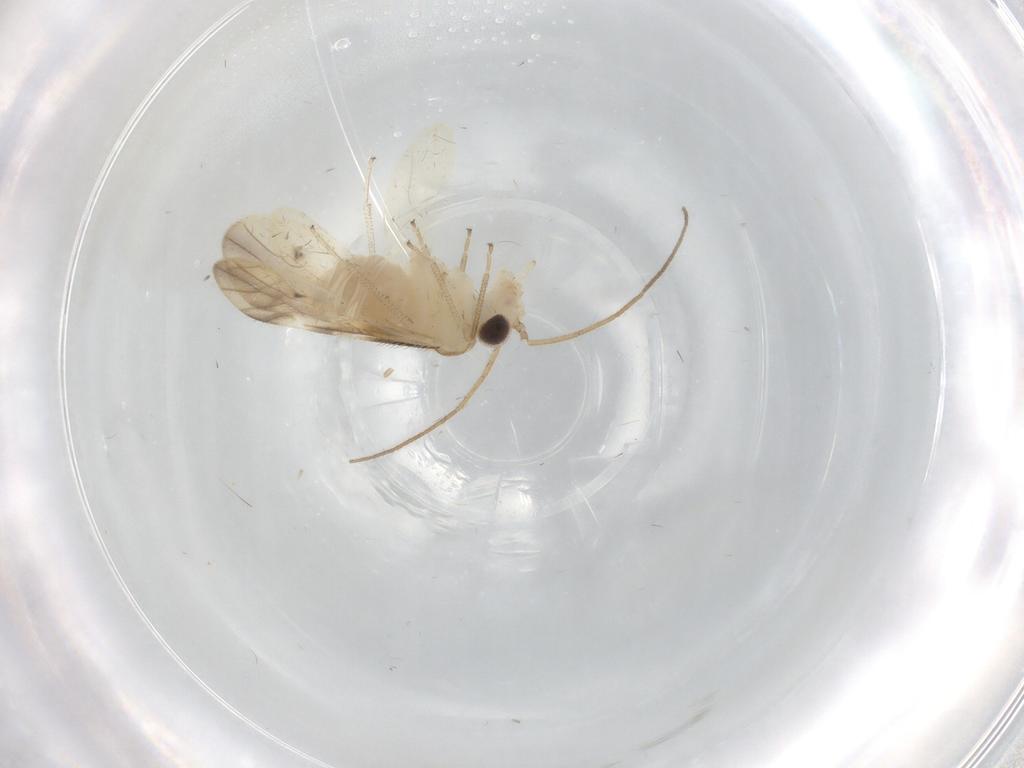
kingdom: Animalia
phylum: Arthropoda
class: Insecta
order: Psocodea
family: Caeciliusidae
